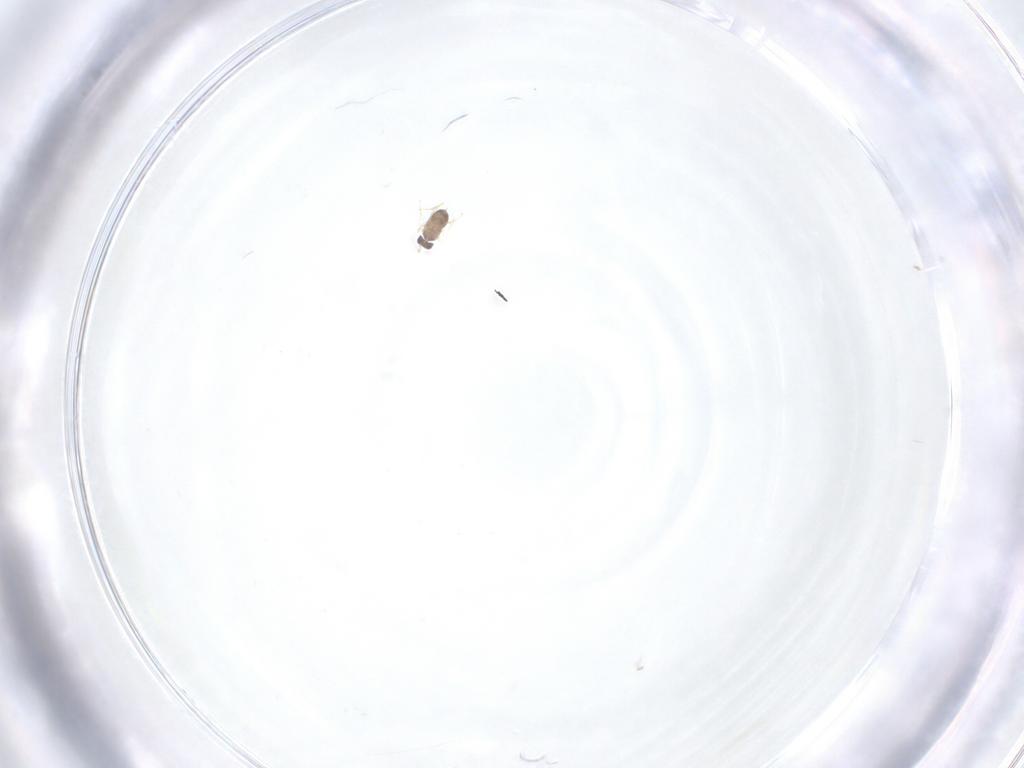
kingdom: Animalia
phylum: Arthropoda
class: Insecta
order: Hymenoptera
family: Mymaridae
